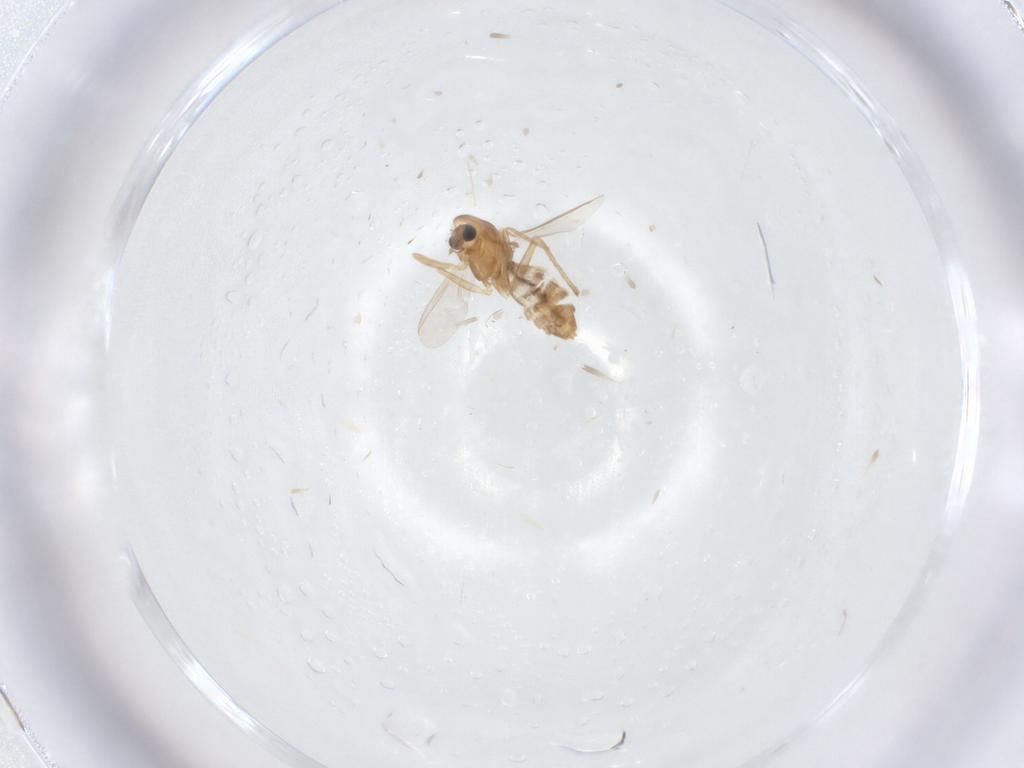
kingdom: Animalia
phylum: Arthropoda
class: Insecta
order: Diptera
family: Chironomidae
